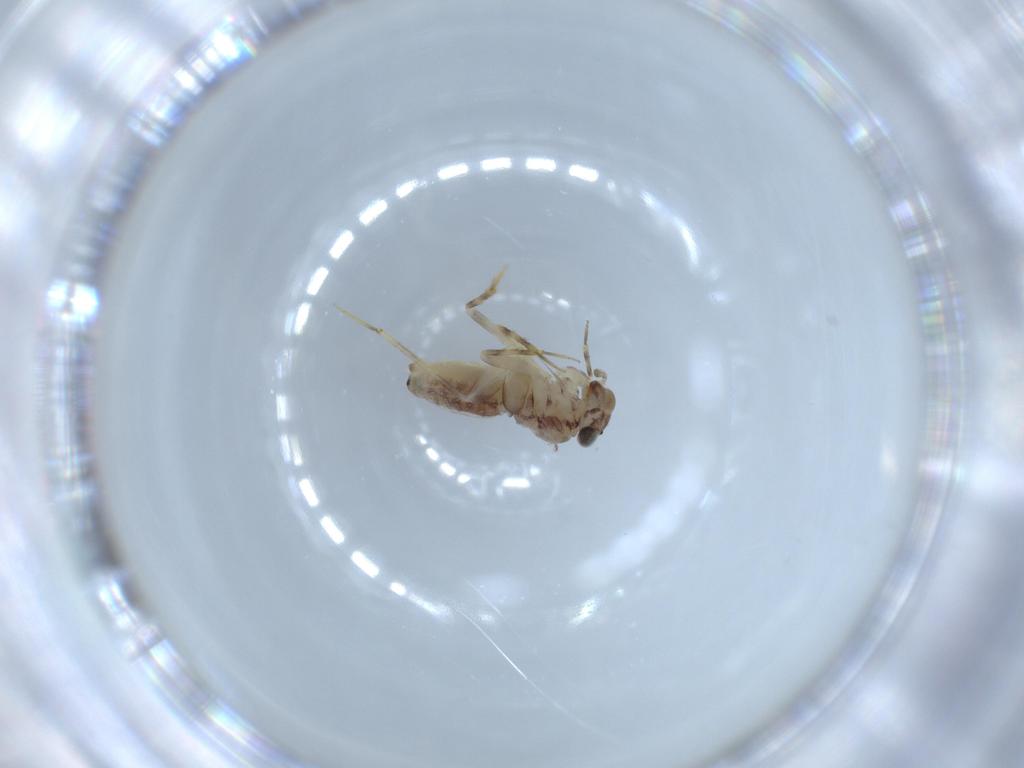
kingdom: Animalia
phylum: Arthropoda
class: Insecta
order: Psocodea
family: Lepidopsocidae
